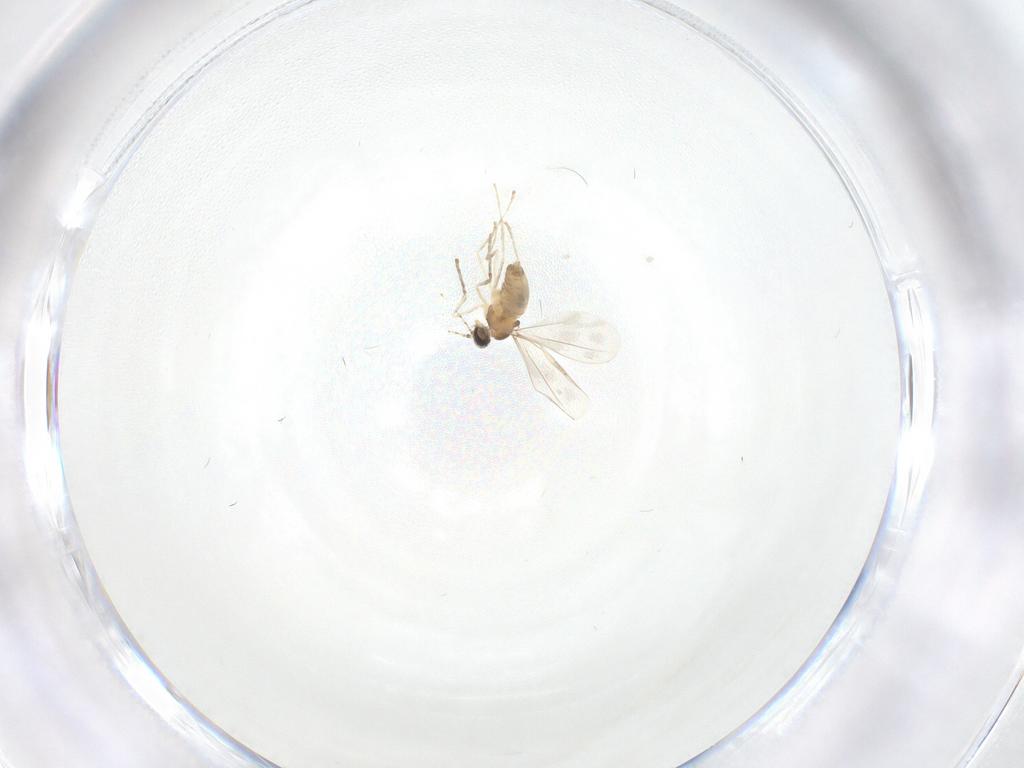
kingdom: Animalia
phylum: Arthropoda
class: Insecta
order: Diptera
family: Cecidomyiidae
